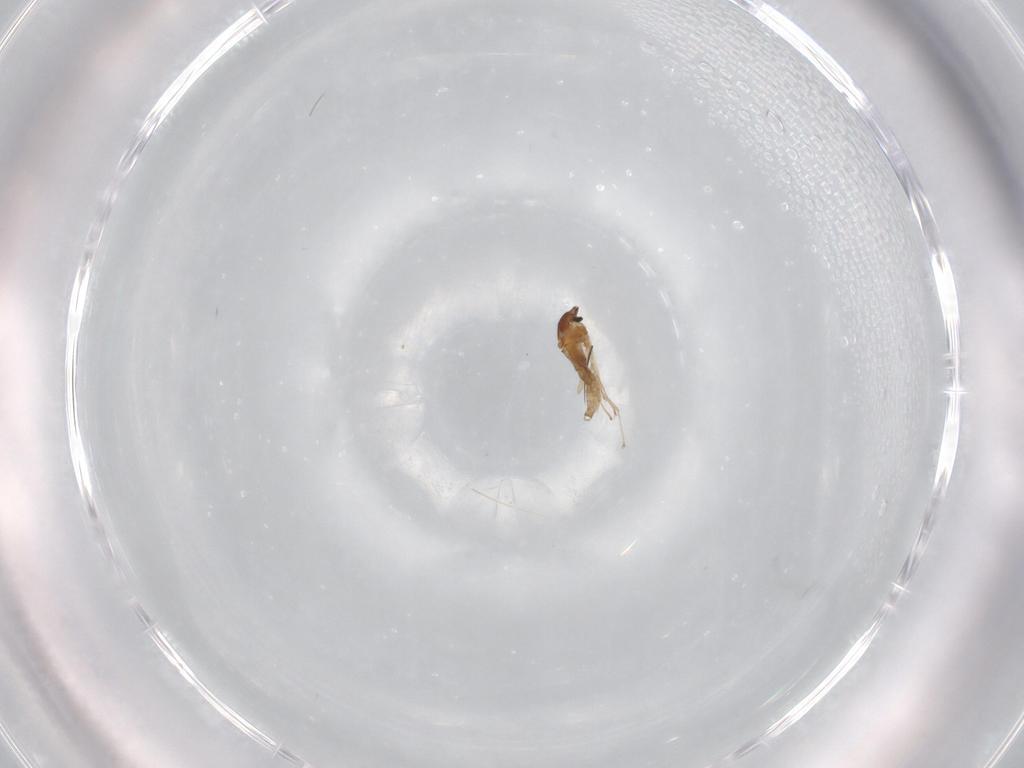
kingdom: Animalia
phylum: Arthropoda
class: Insecta
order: Diptera
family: Cecidomyiidae
